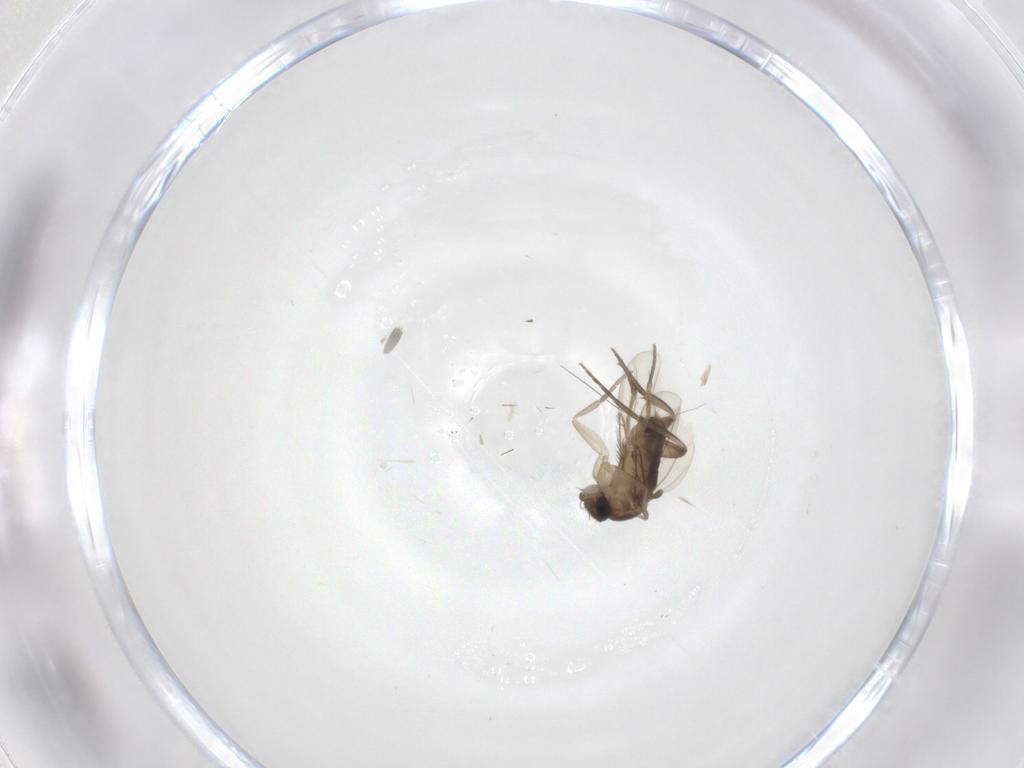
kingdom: Animalia
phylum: Arthropoda
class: Insecta
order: Diptera
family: Phoridae
